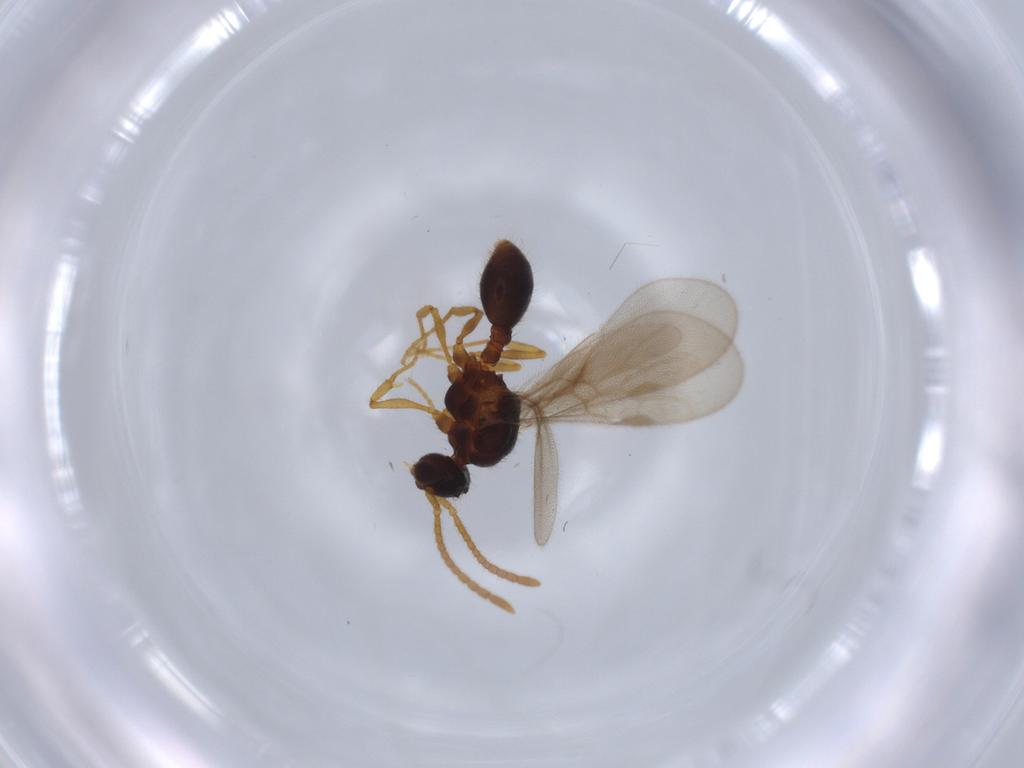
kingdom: Animalia
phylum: Arthropoda
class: Insecta
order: Hymenoptera
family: Formicidae
